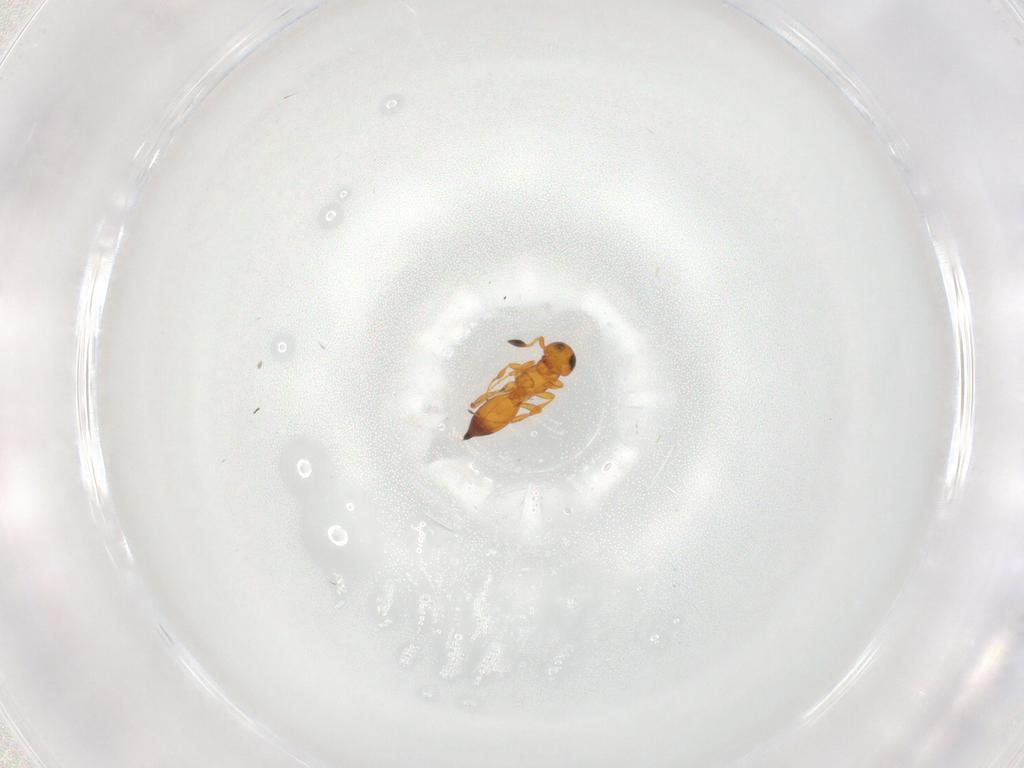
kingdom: Animalia
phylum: Arthropoda
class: Insecta
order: Hymenoptera
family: Platygastridae
